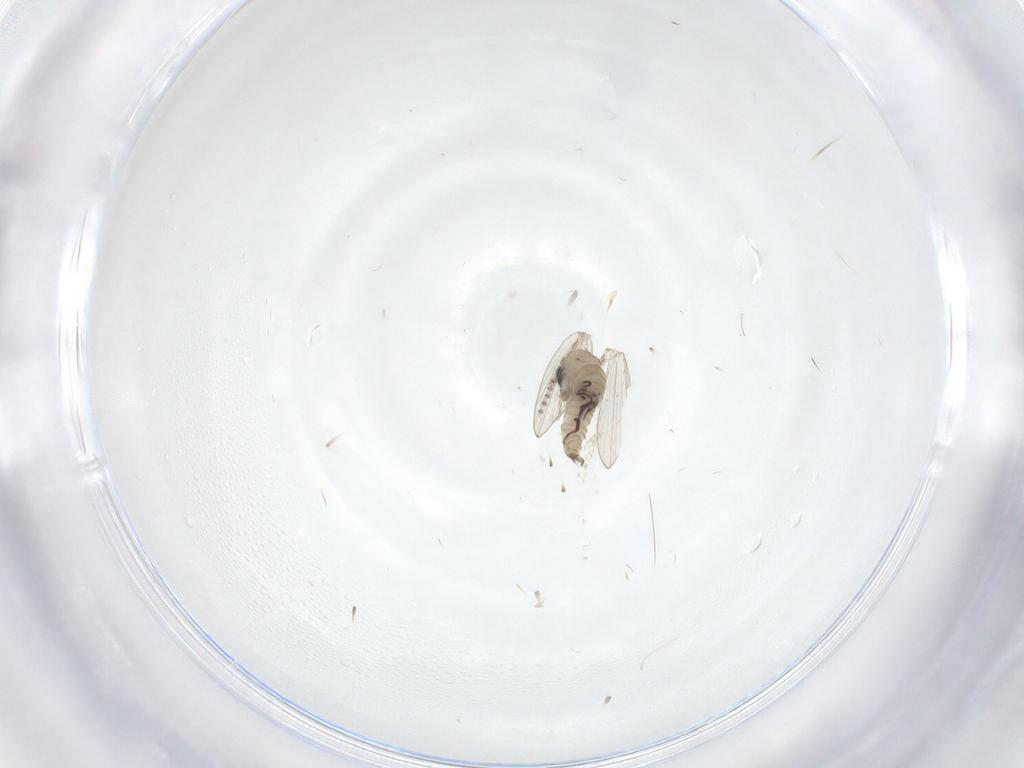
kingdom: Animalia
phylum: Arthropoda
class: Insecta
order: Diptera
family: Psychodidae
